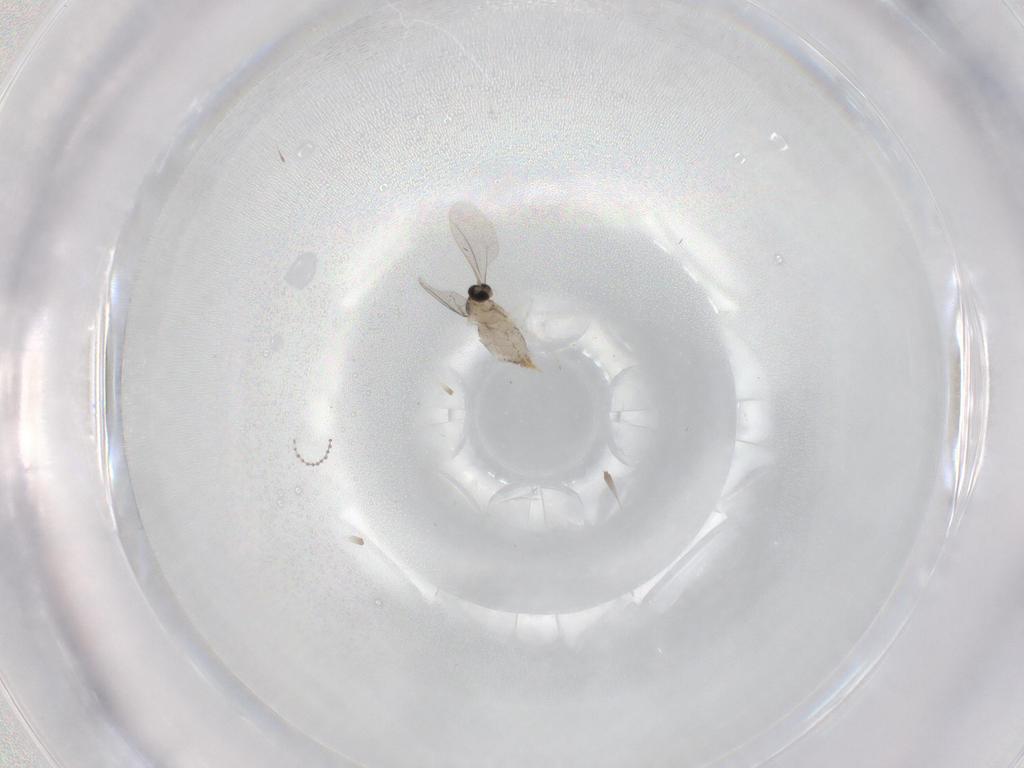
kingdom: Animalia
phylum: Arthropoda
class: Insecta
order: Diptera
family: Cecidomyiidae
